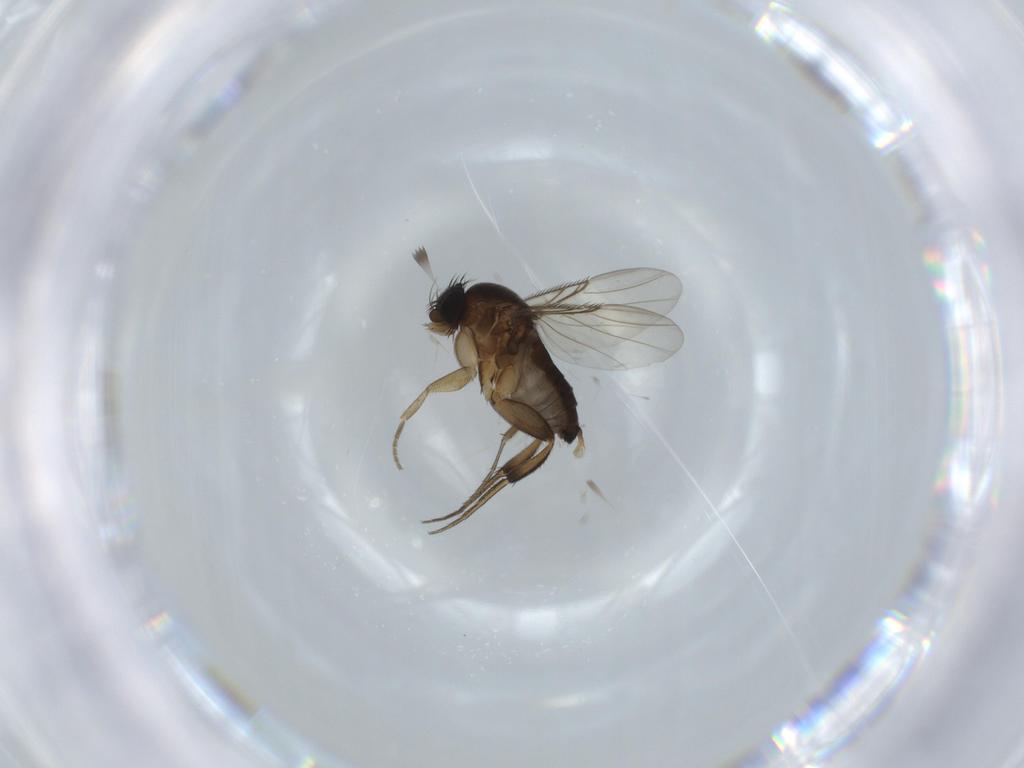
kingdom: Animalia
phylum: Arthropoda
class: Insecta
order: Diptera
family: Phoridae
